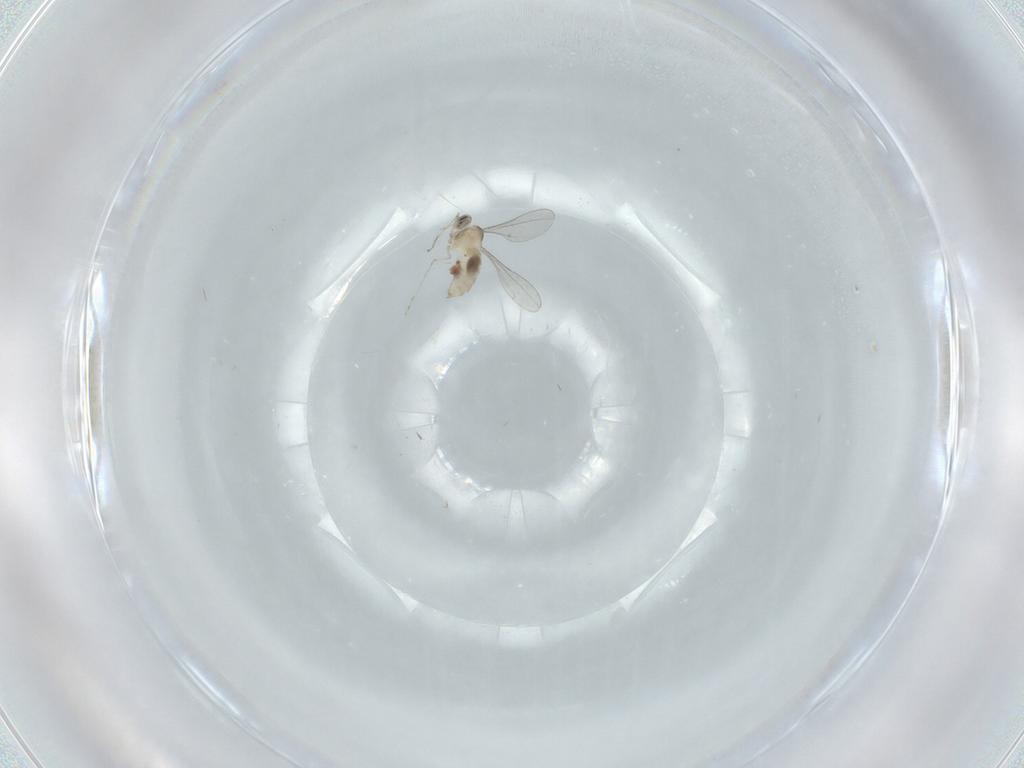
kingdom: Animalia
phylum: Arthropoda
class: Insecta
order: Diptera
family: Cecidomyiidae
